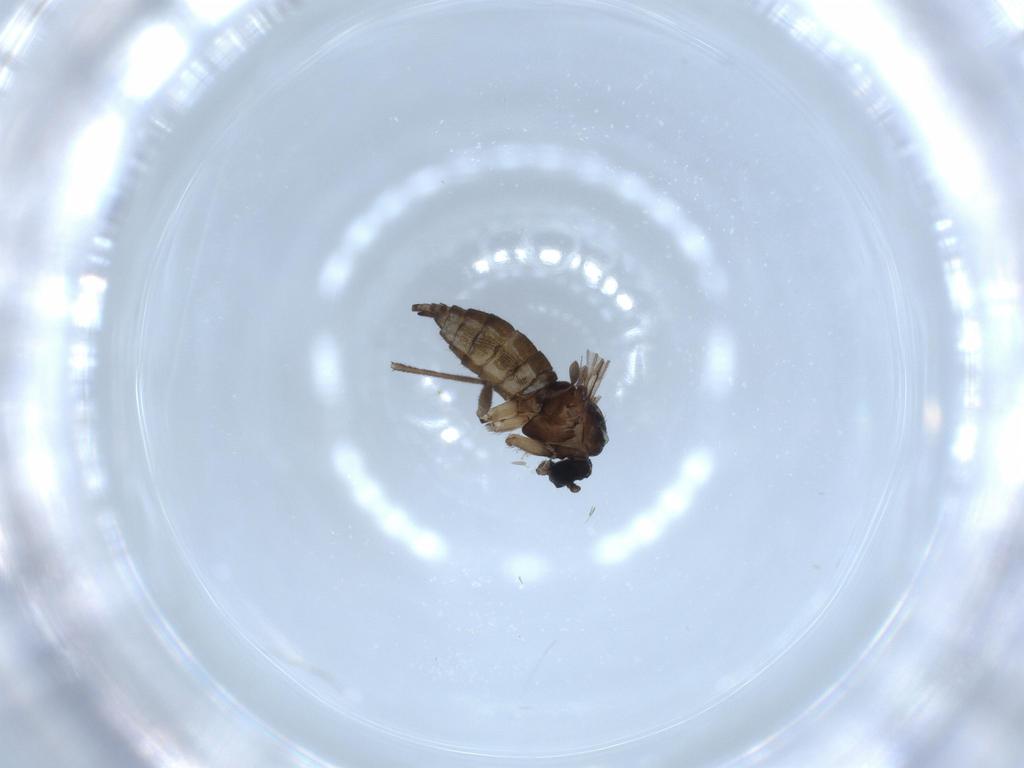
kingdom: Animalia
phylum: Arthropoda
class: Insecta
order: Diptera
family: Sciaridae
